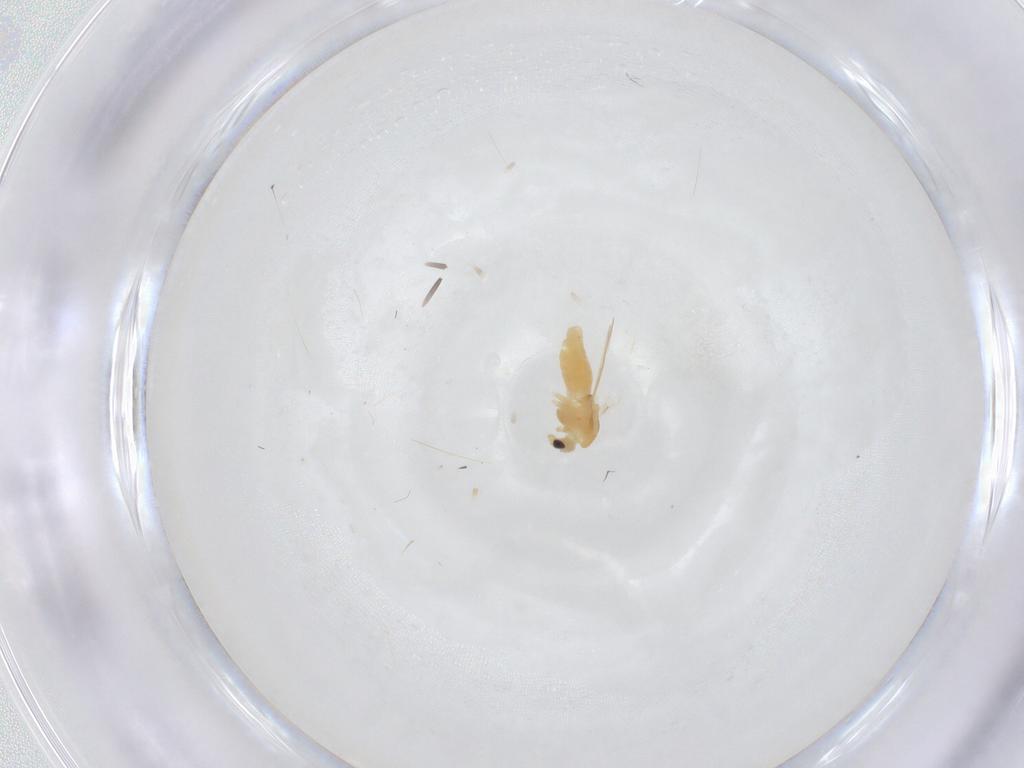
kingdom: Animalia
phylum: Arthropoda
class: Insecta
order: Diptera
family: Chironomidae
